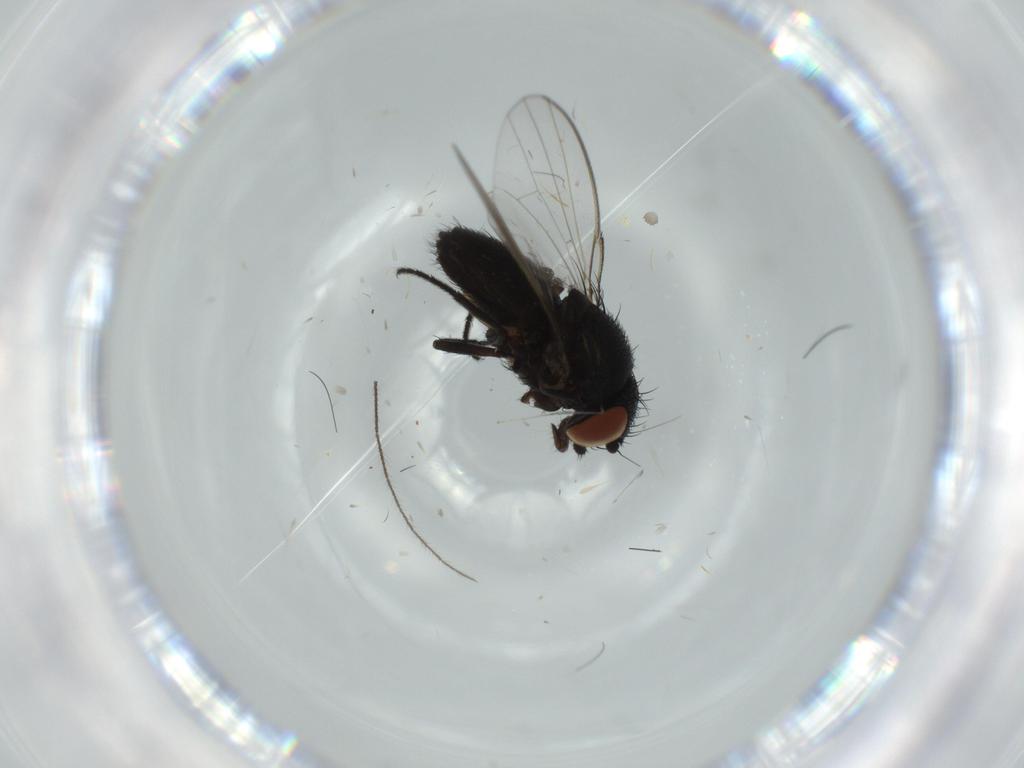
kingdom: Animalia
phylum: Arthropoda
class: Insecta
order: Diptera
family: Milichiidae
